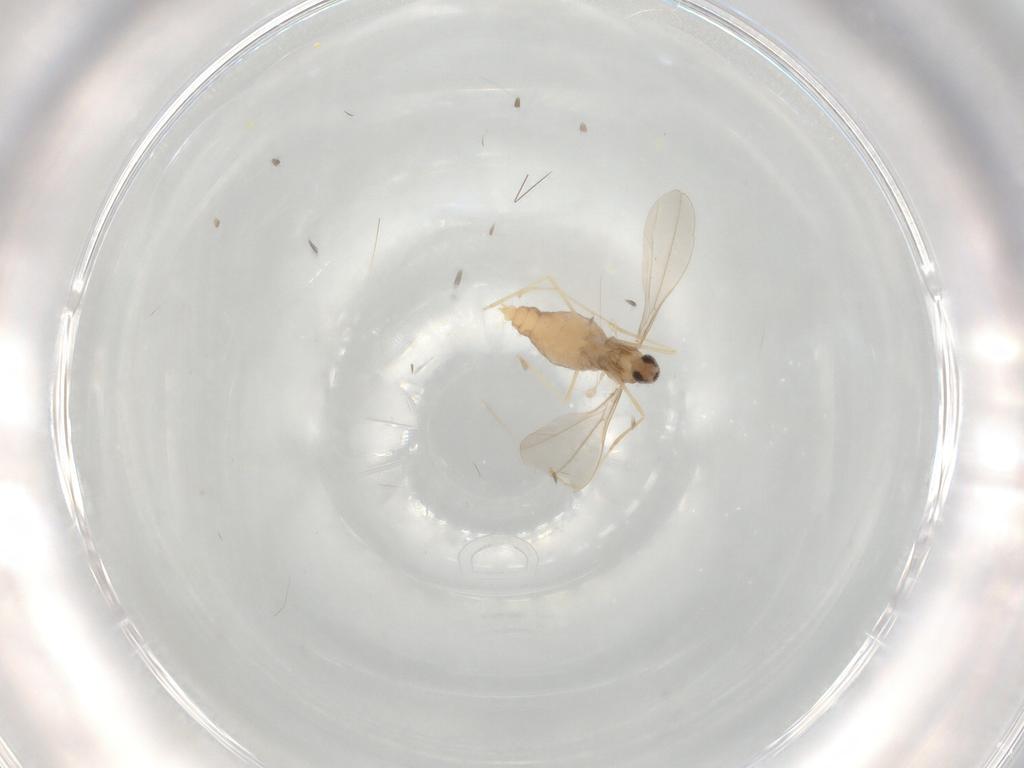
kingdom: Animalia
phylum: Arthropoda
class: Insecta
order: Diptera
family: Cecidomyiidae
